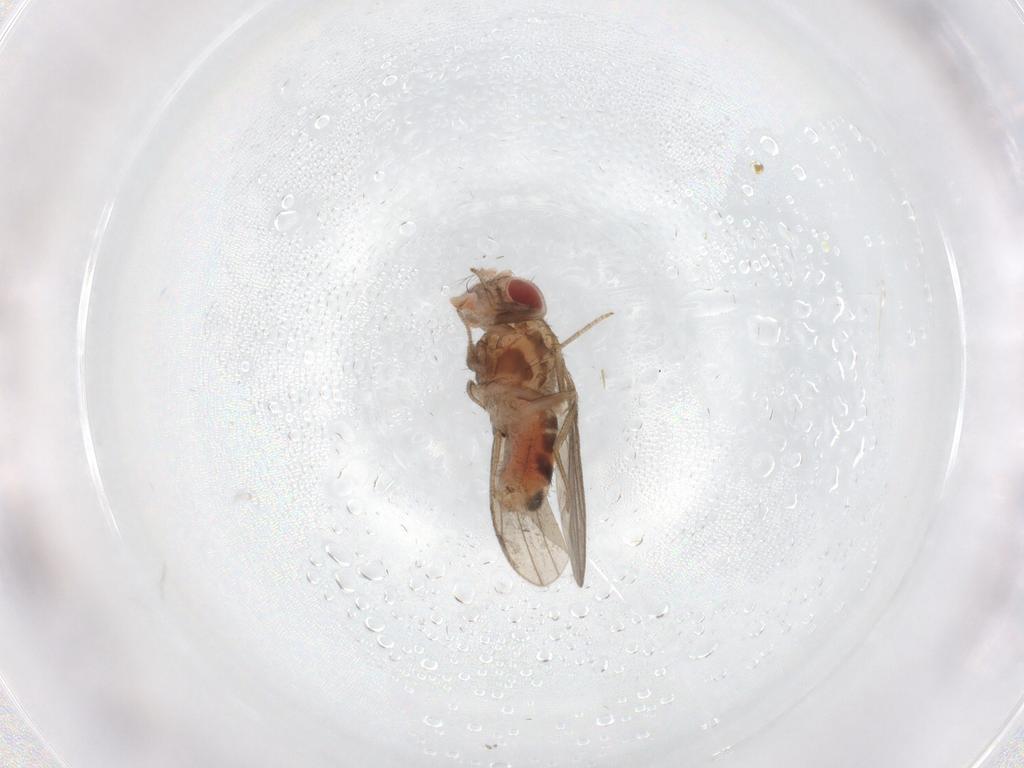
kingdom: Animalia
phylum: Arthropoda
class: Insecta
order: Diptera
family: Drosophilidae
